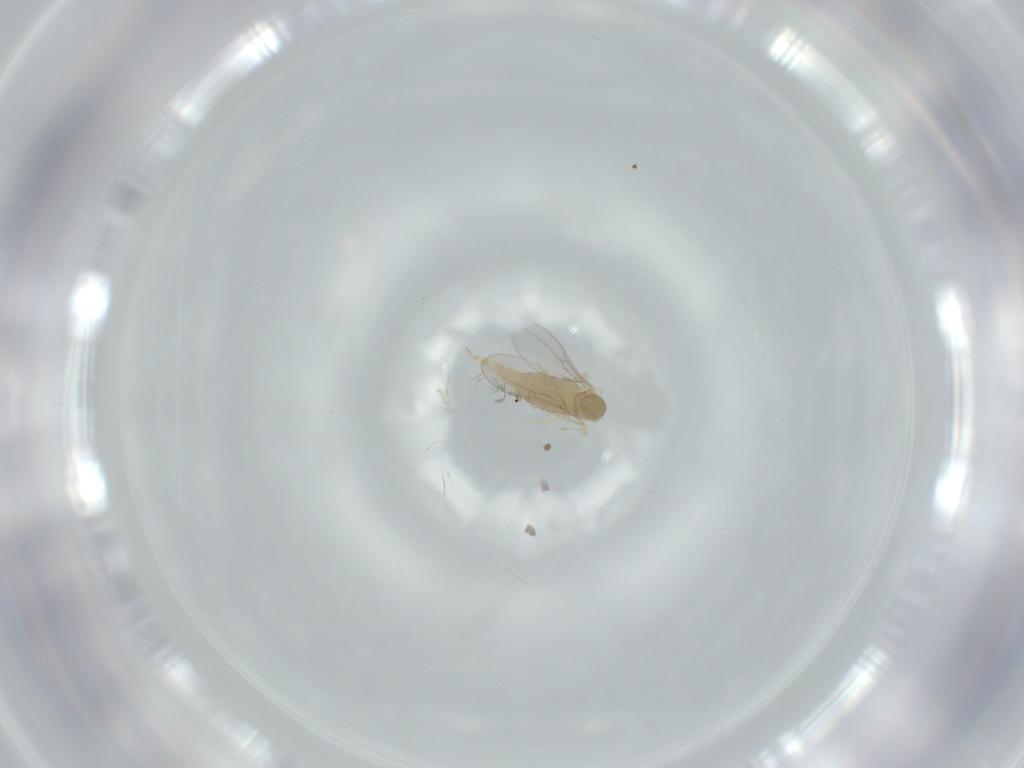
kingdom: Animalia
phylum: Arthropoda
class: Insecta
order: Diptera
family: Cecidomyiidae
